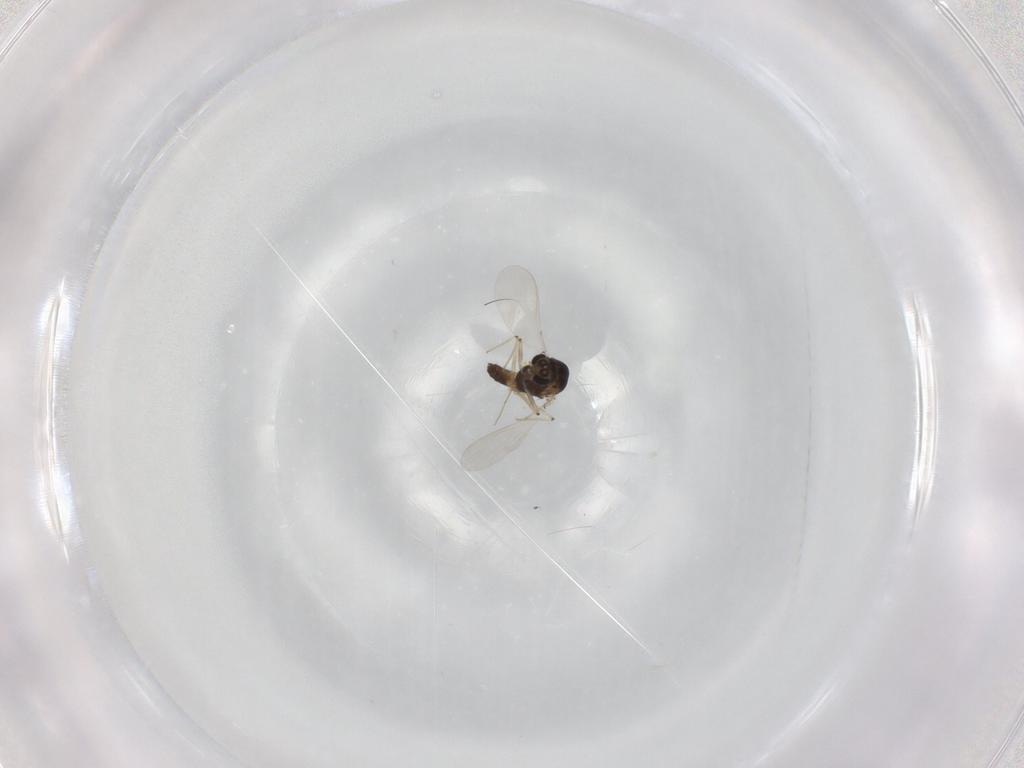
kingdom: Animalia
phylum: Arthropoda
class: Insecta
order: Diptera
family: Chironomidae
